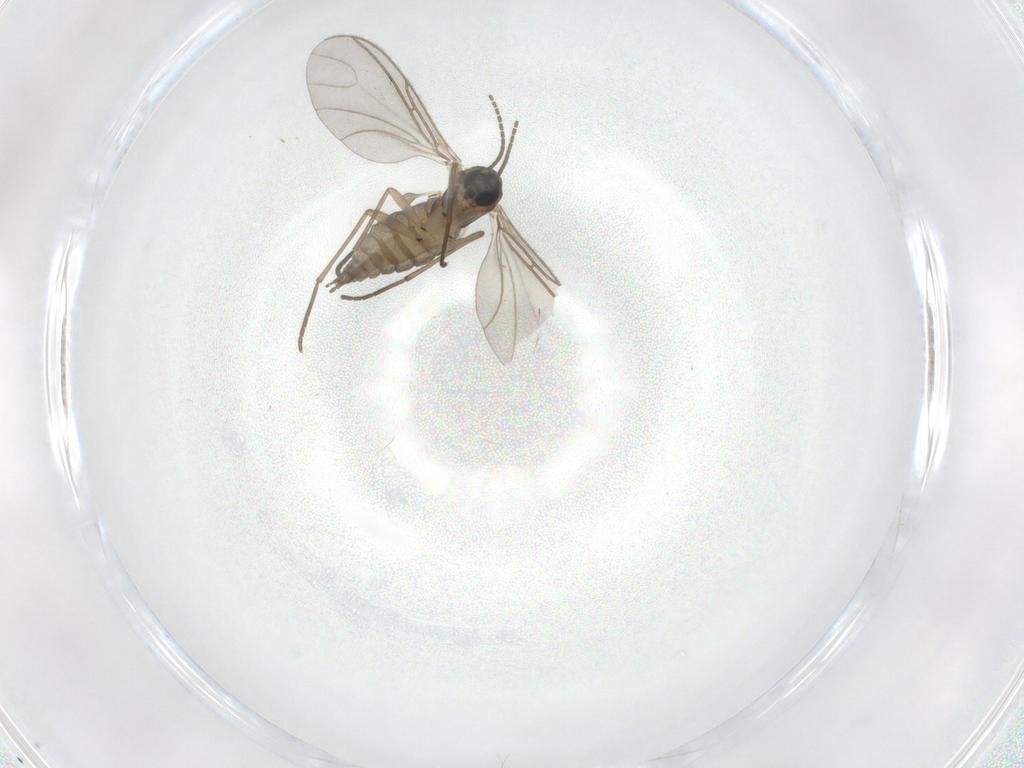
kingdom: Animalia
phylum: Arthropoda
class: Insecta
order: Diptera
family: Sciaridae
